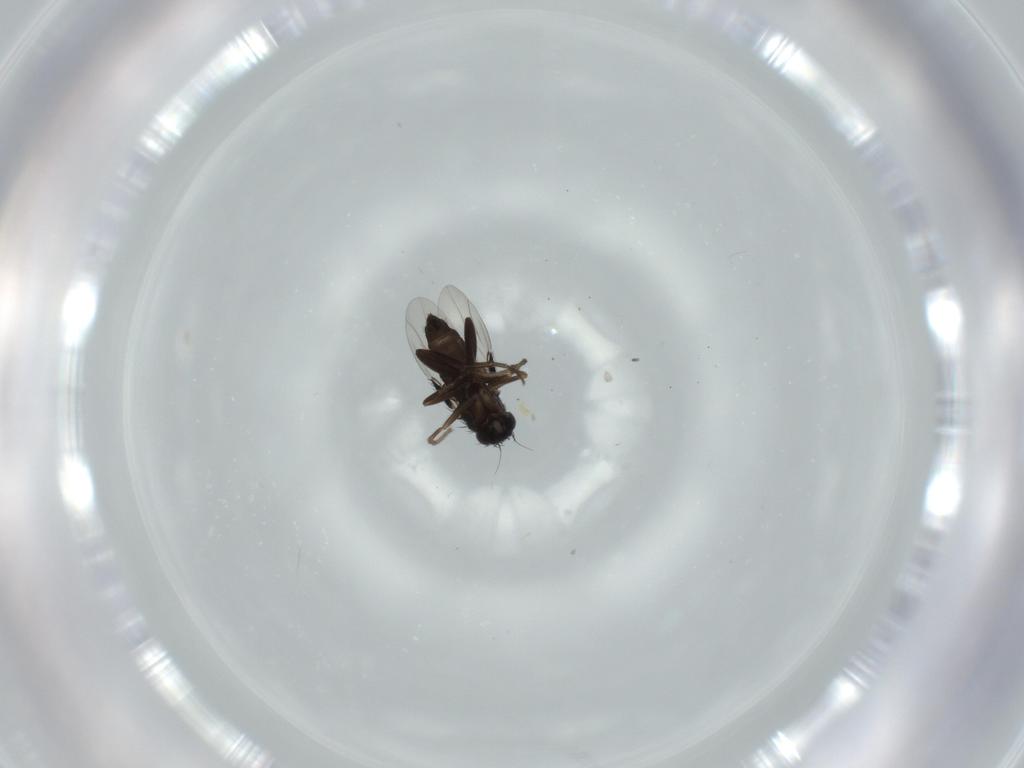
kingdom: Animalia
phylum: Arthropoda
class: Insecta
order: Diptera
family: Phoridae
